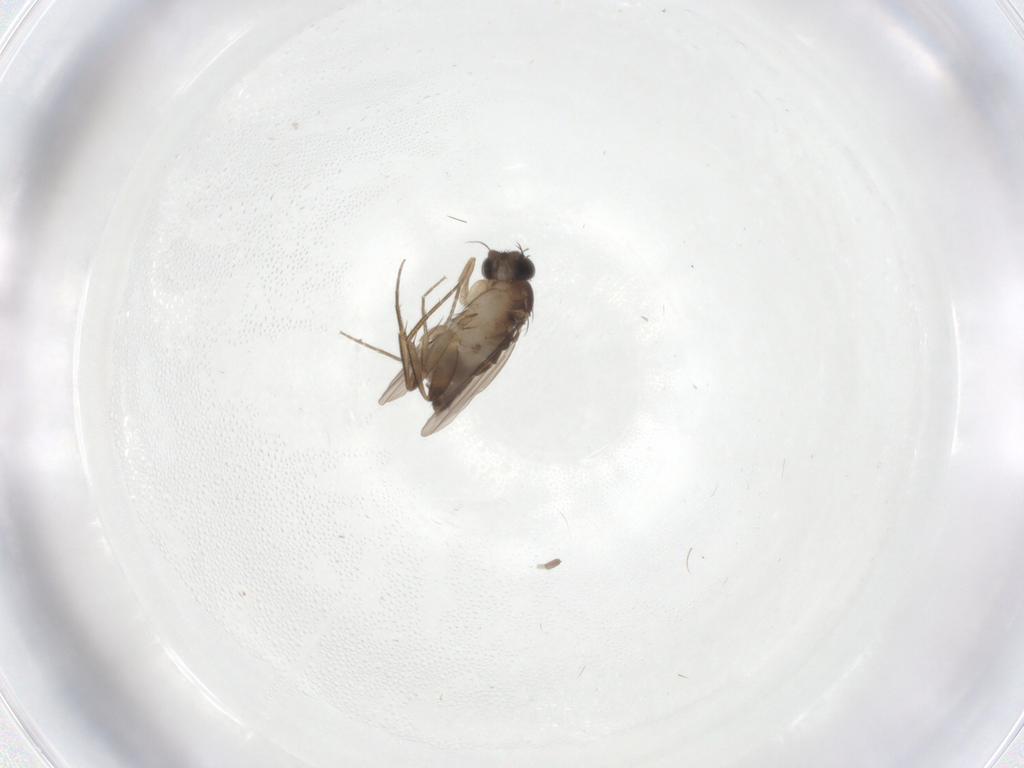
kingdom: Animalia
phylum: Arthropoda
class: Insecta
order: Diptera
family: Phoridae
